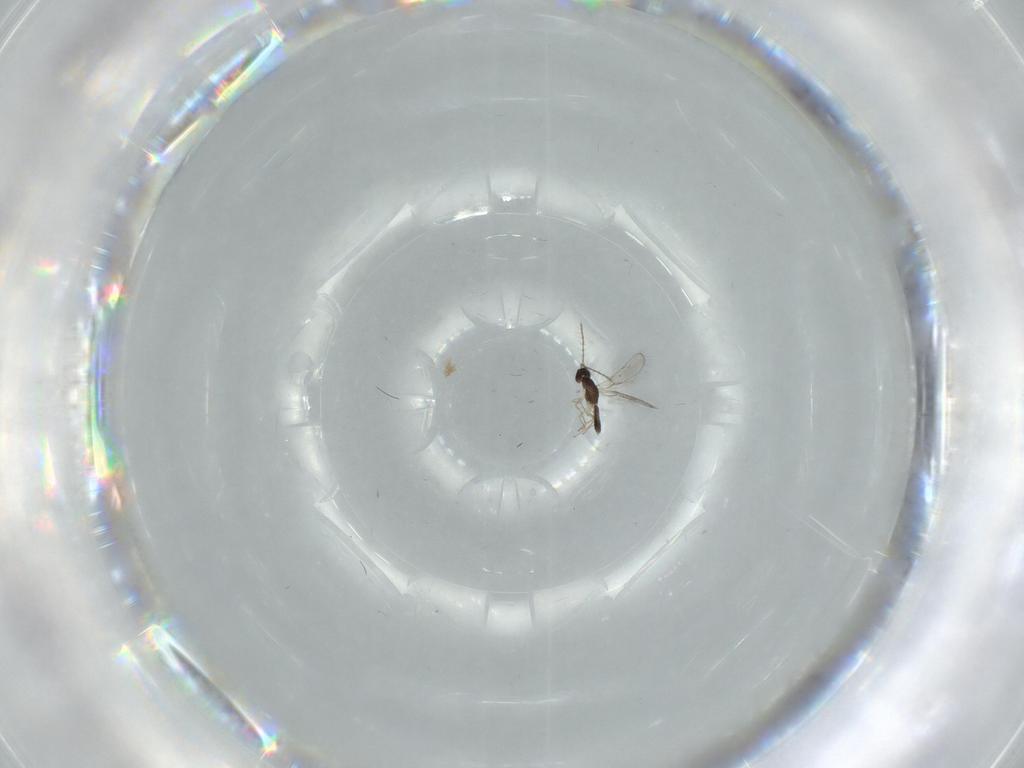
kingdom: Animalia
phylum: Arthropoda
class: Insecta
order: Hymenoptera
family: Pteromalidae
